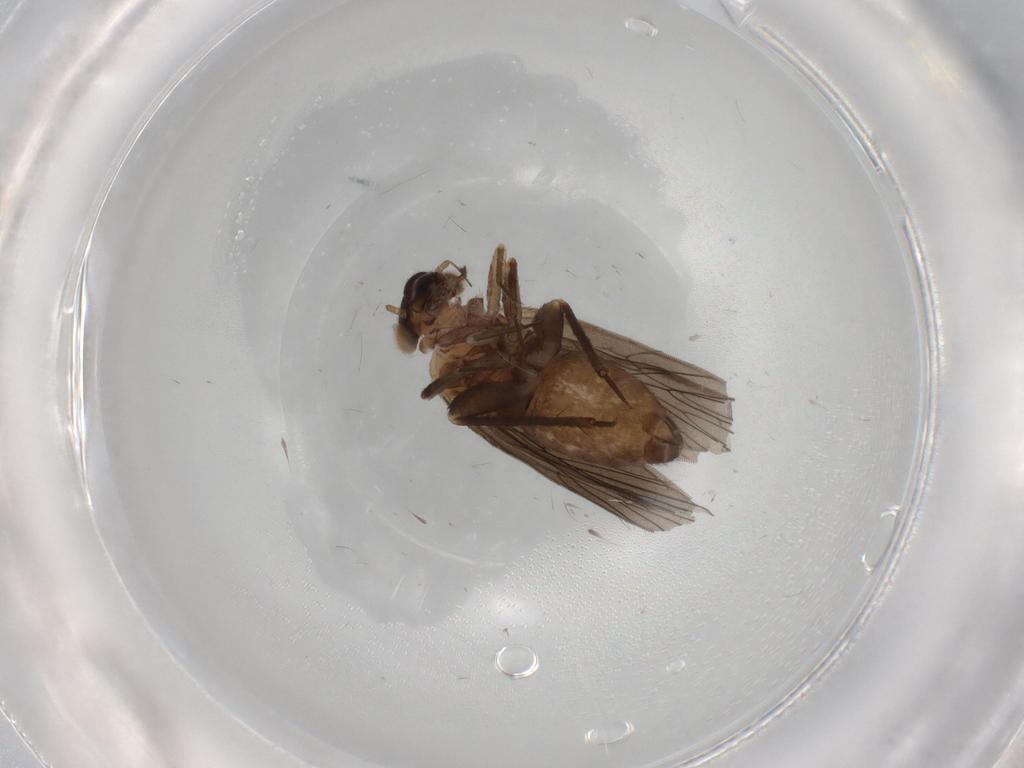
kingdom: Animalia
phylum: Arthropoda
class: Insecta
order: Psocodea
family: Lepidopsocidae
